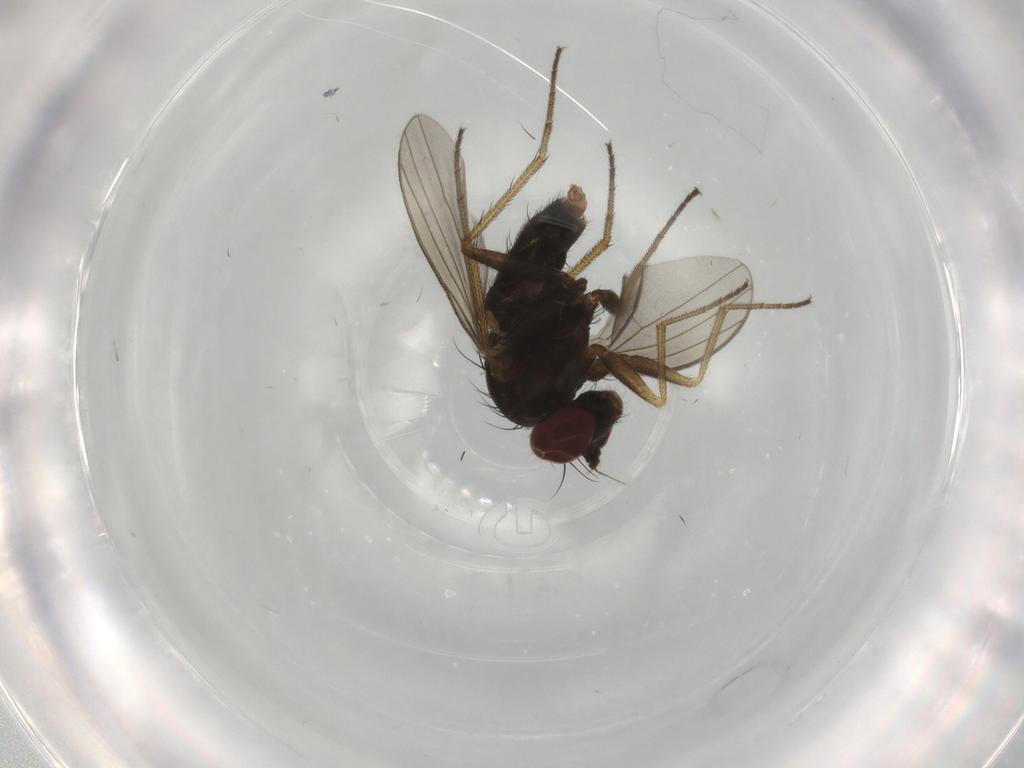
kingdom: Animalia
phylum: Arthropoda
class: Insecta
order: Diptera
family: Dolichopodidae
